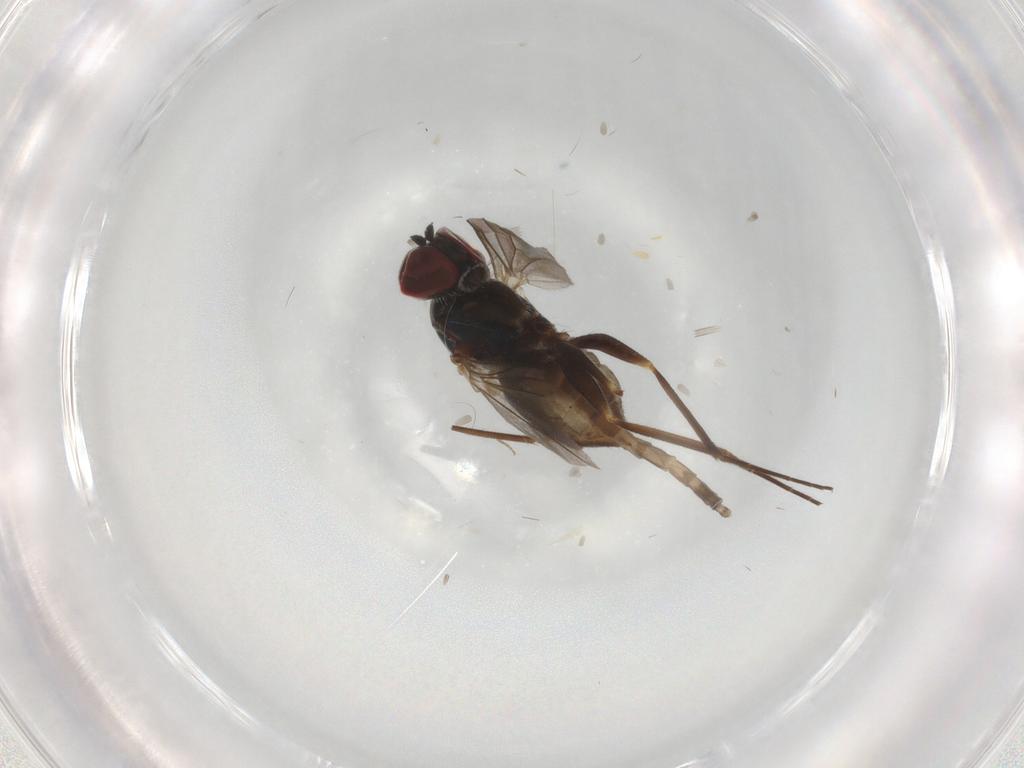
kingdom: Animalia
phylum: Arthropoda
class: Insecta
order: Diptera
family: Dolichopodidae
